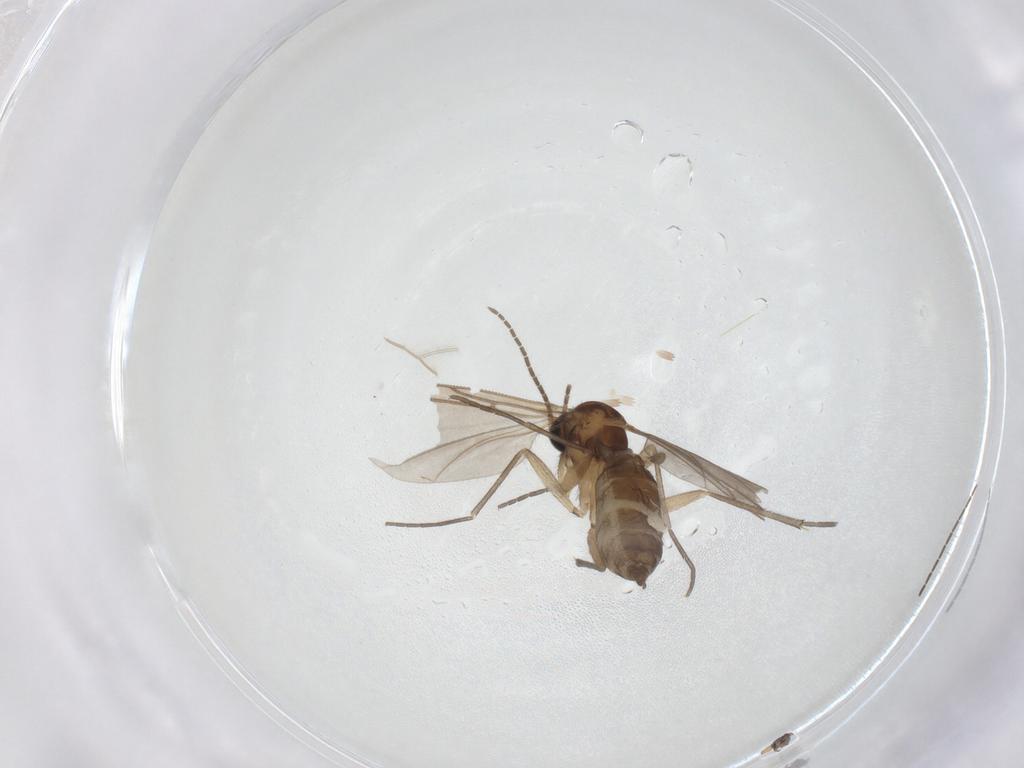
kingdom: Animalia
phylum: Arthropoda
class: Insecta
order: Diptera
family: Sciaridae
